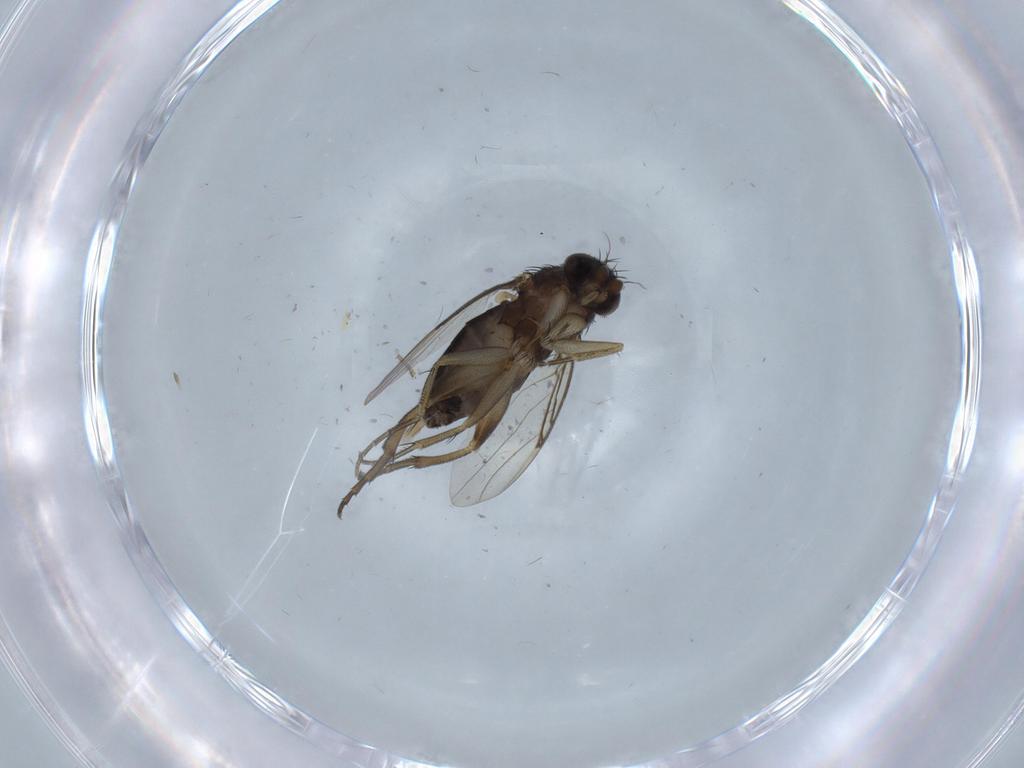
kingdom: Animalia
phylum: Arthropoda
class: Insecta
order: Diptera
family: Phoridae
